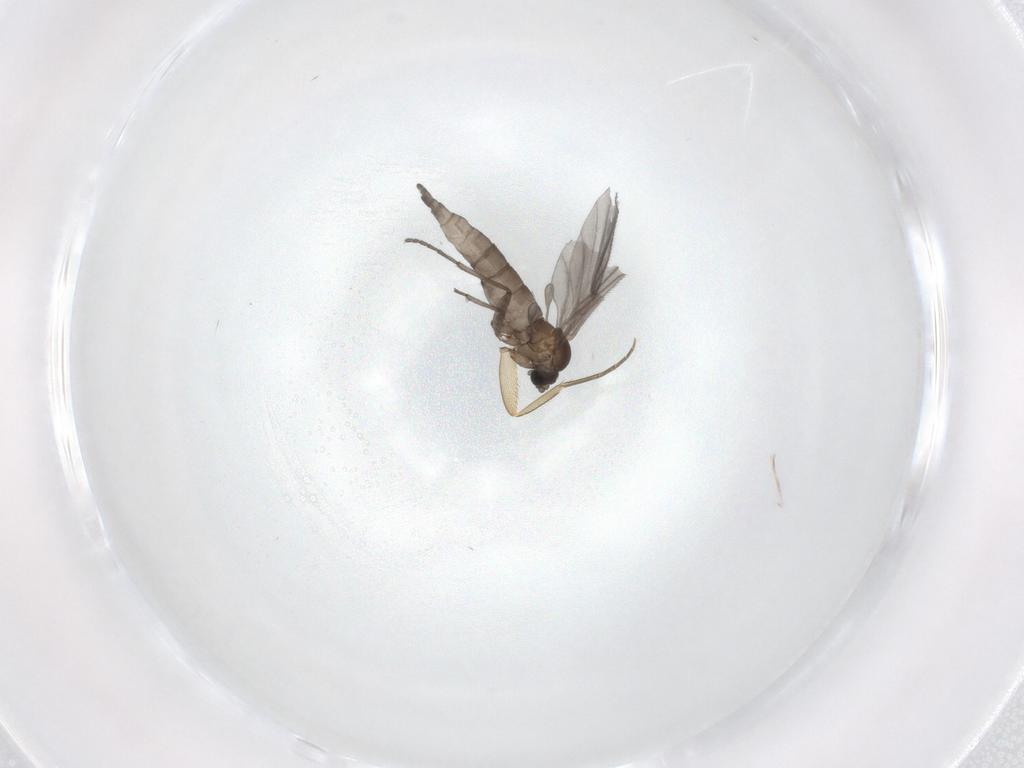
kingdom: Animalia
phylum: Arthropoda
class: Insecta
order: Diptera
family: Sciaridae
